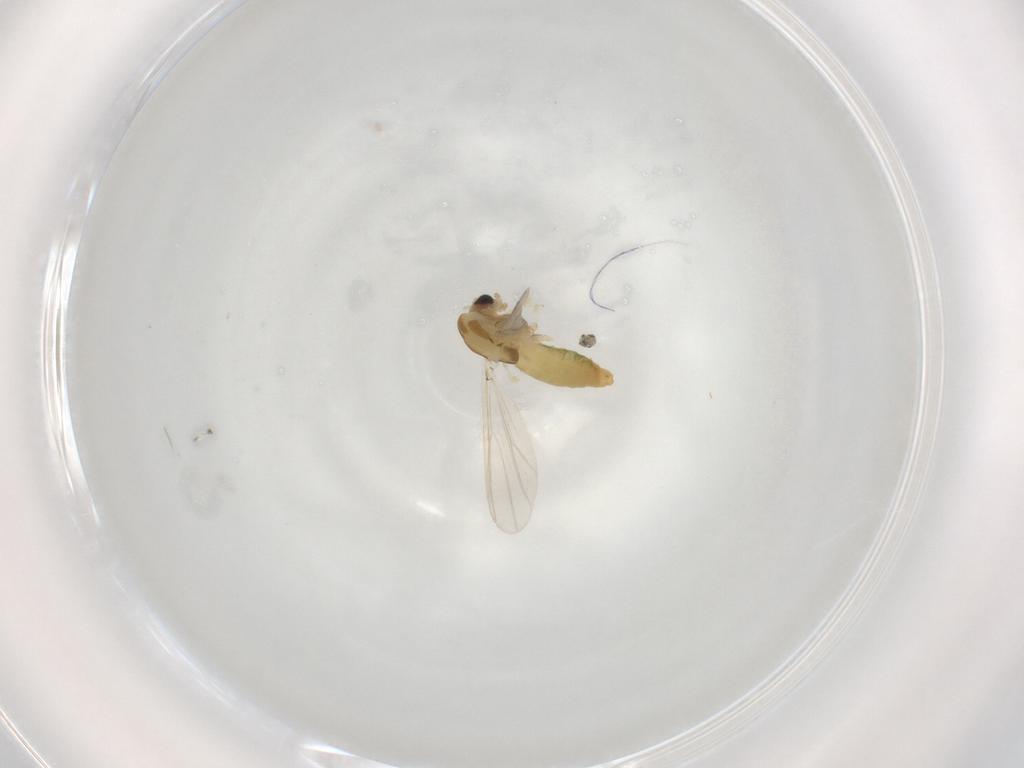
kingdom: Animalia
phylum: Arthropoda
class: Insecta
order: Diptera
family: Chironomidae
